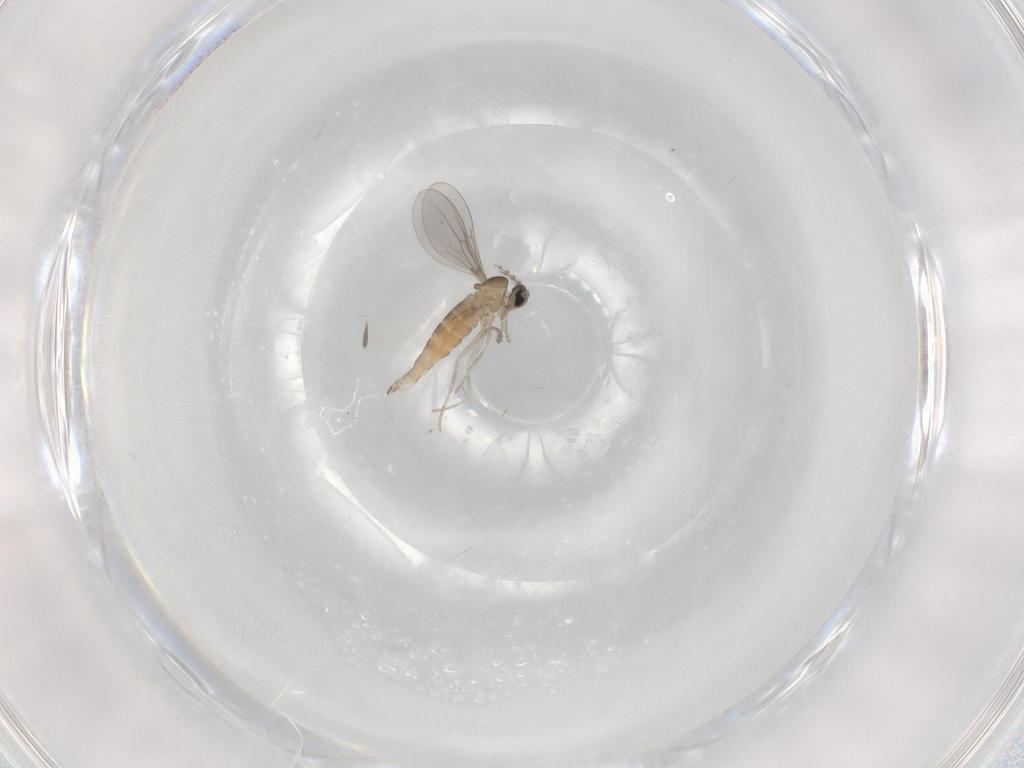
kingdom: Animalia
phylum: Arthropoda
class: Insecta
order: Diptera
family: Cecidomyiidae
